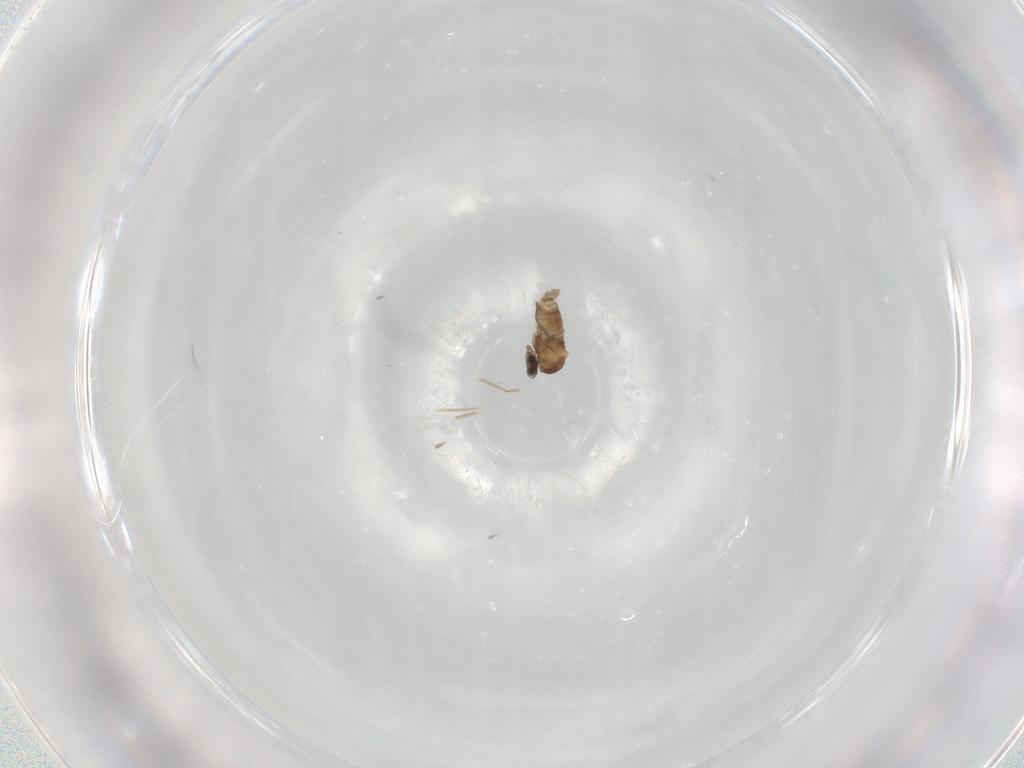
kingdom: Animalia
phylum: Arthropoda
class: Insecta
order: Diptera
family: Cecidomyiidae
